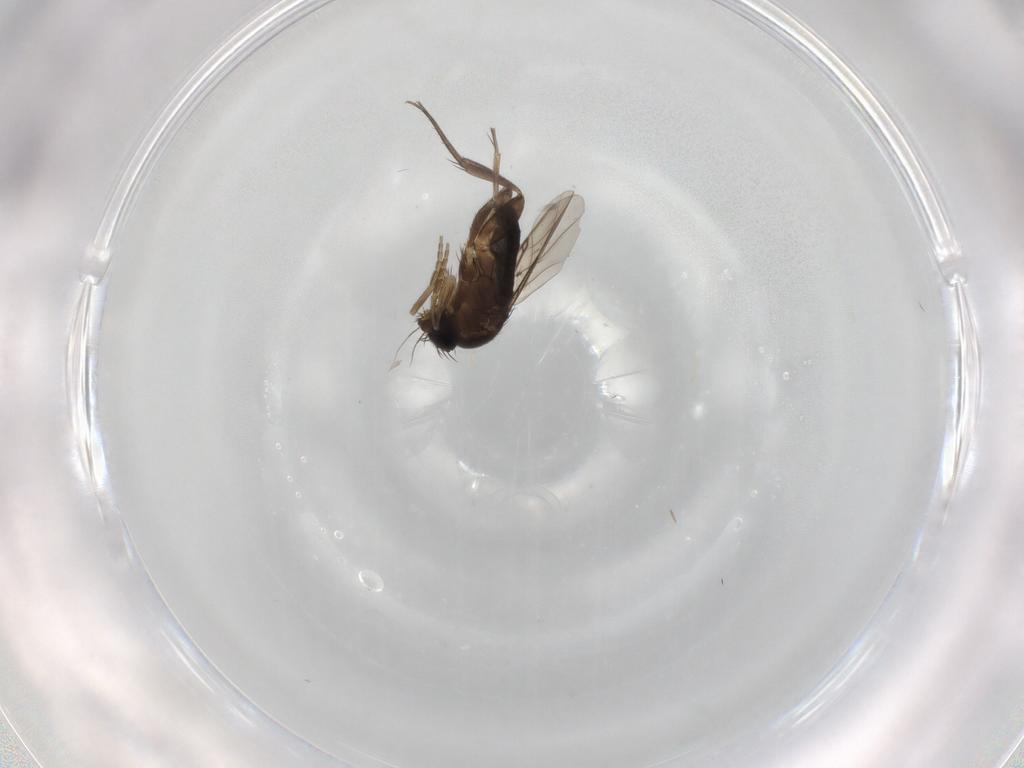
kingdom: Animalia
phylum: Arthropoda
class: Insecta
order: Diptera
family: Phoridae
